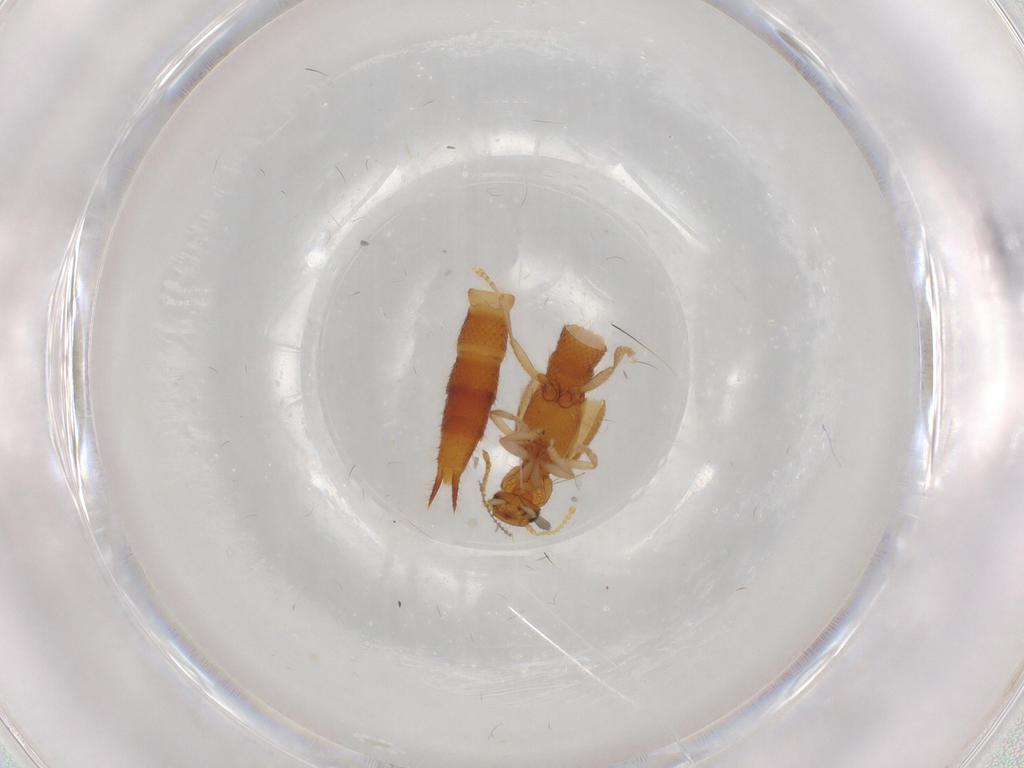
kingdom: Animalia
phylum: Arthropoda
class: Insecta
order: Coleoptera
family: Staphylinidae
